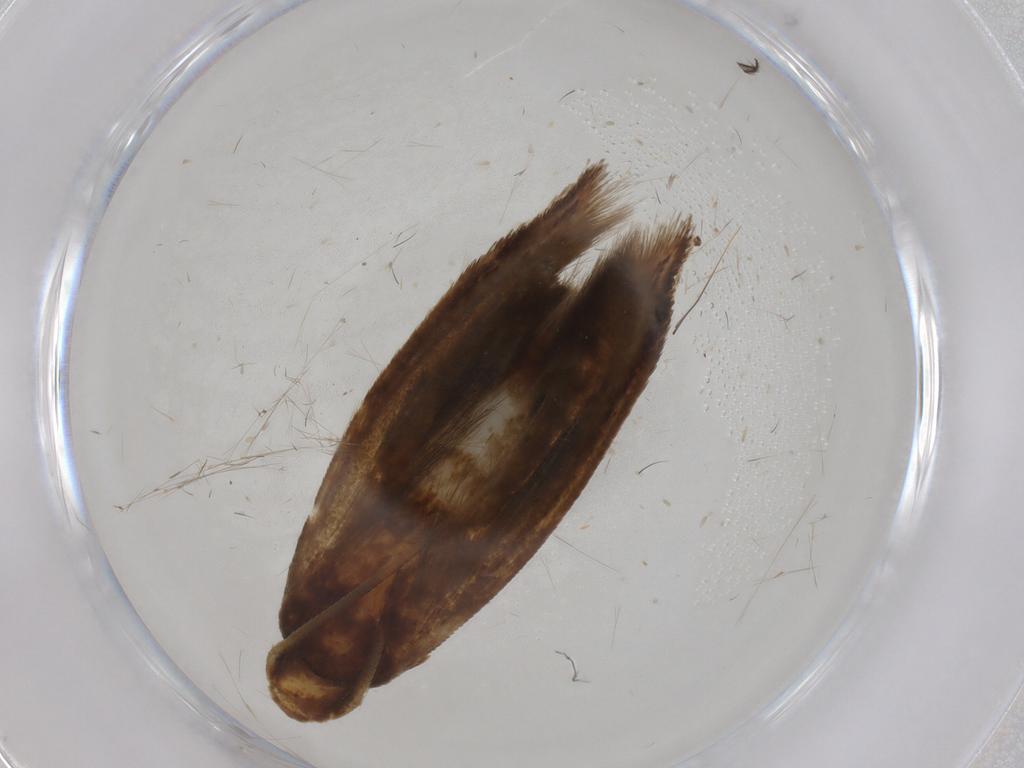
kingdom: Animalia
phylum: Arthropoda
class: Insecta
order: Lepidoptera
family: Tineidae
